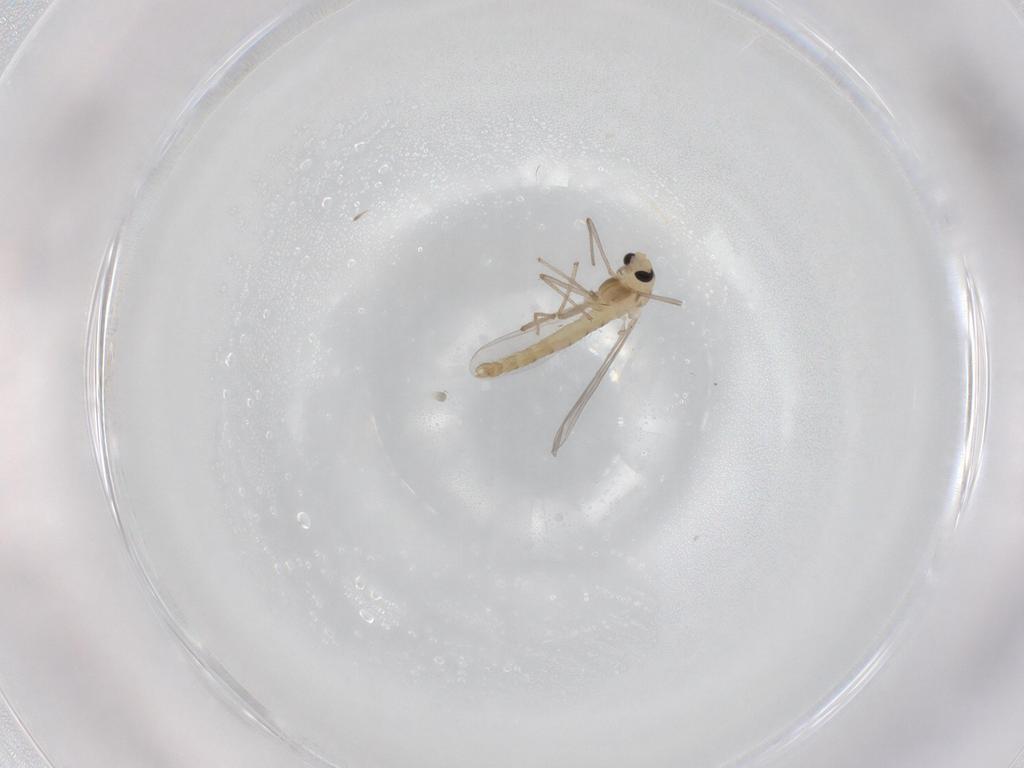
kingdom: Animalia
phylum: Arthropoda
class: Insecta
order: Diptera
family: Chironomidae
